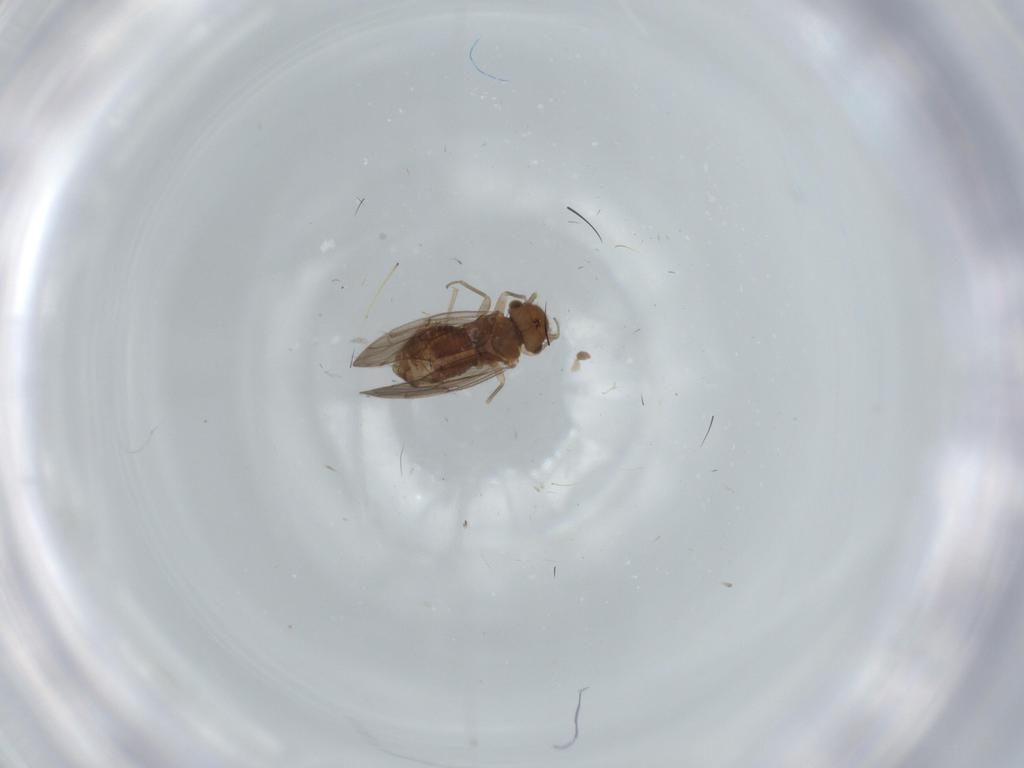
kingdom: Animalia
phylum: Arthropoda
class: Insecta
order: Psocodea
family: Ectopsocidae
